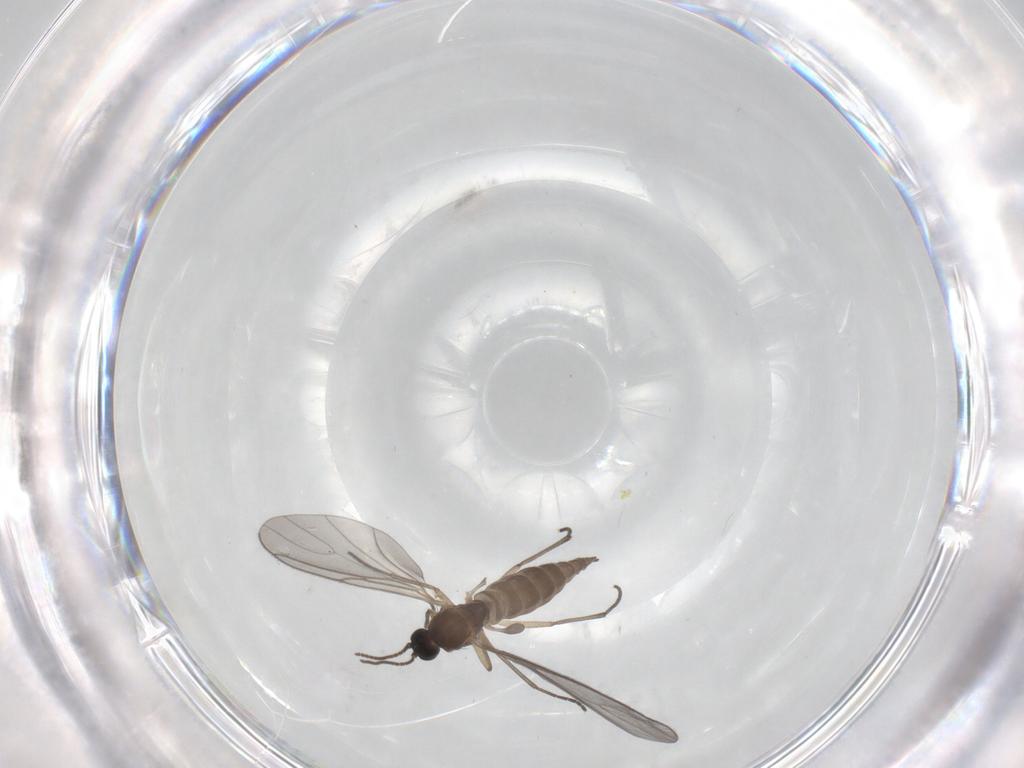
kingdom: Animalia
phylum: Arthropoda
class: Insecta
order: Diptera
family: Sciaridae
